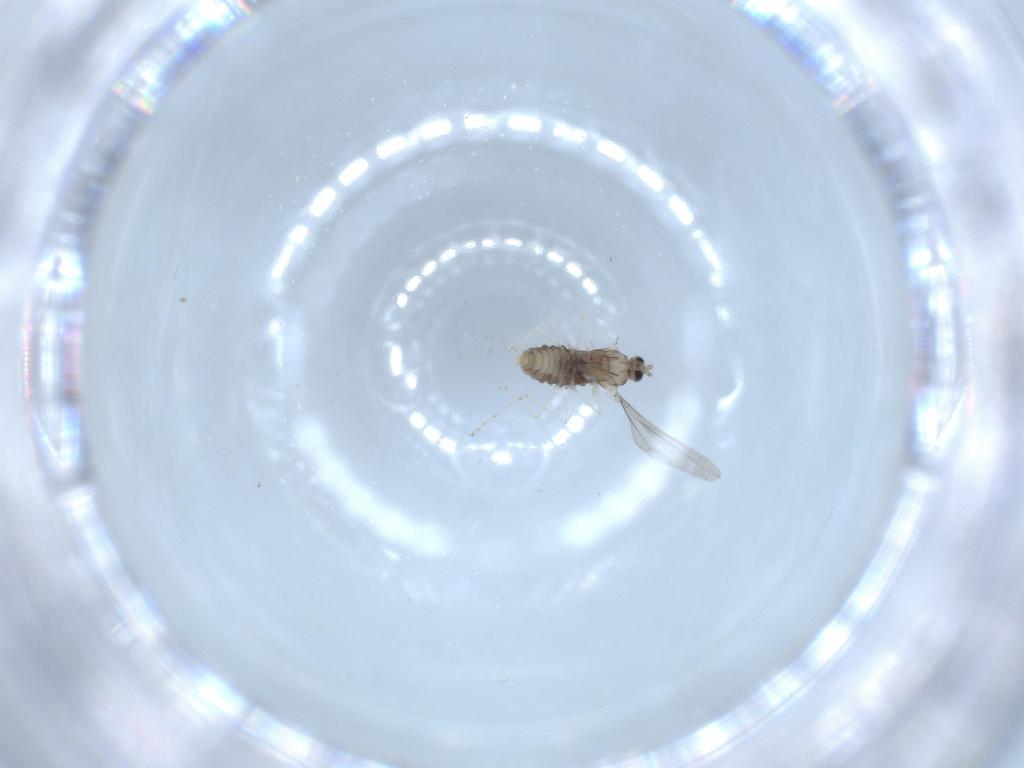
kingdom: Animalia
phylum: Arthropoda
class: Insecta
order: Diptera
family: Cecidomyiidae
